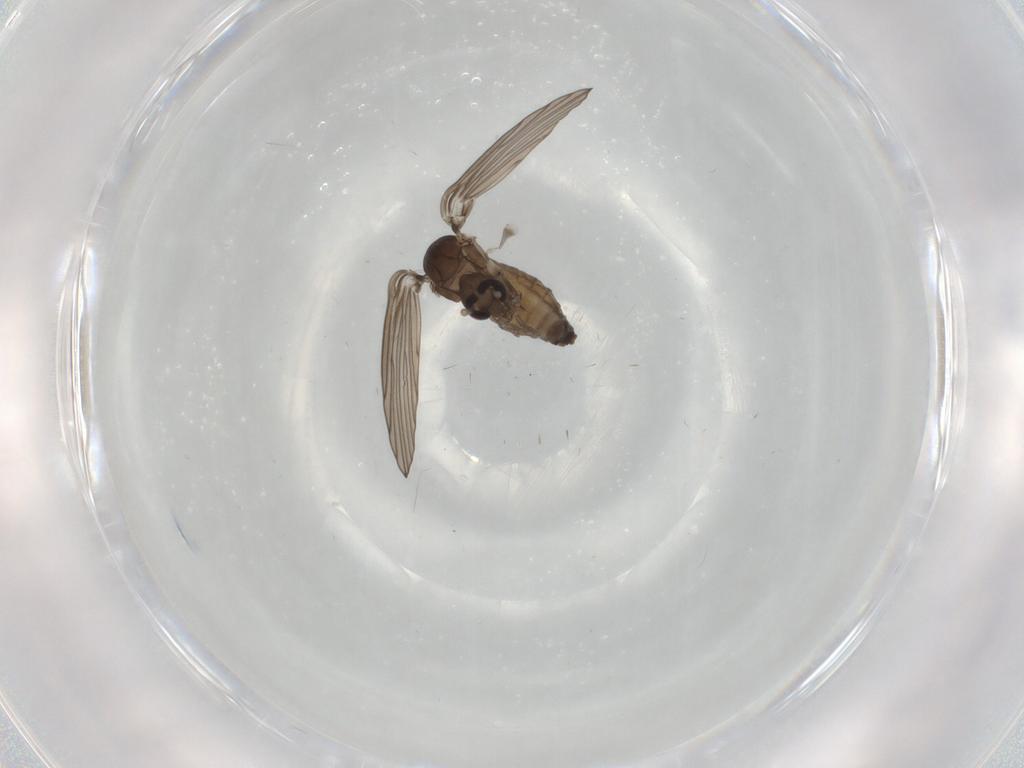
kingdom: Animalia
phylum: Arthropoda
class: Insecta
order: Diptera
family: Psychodidae
